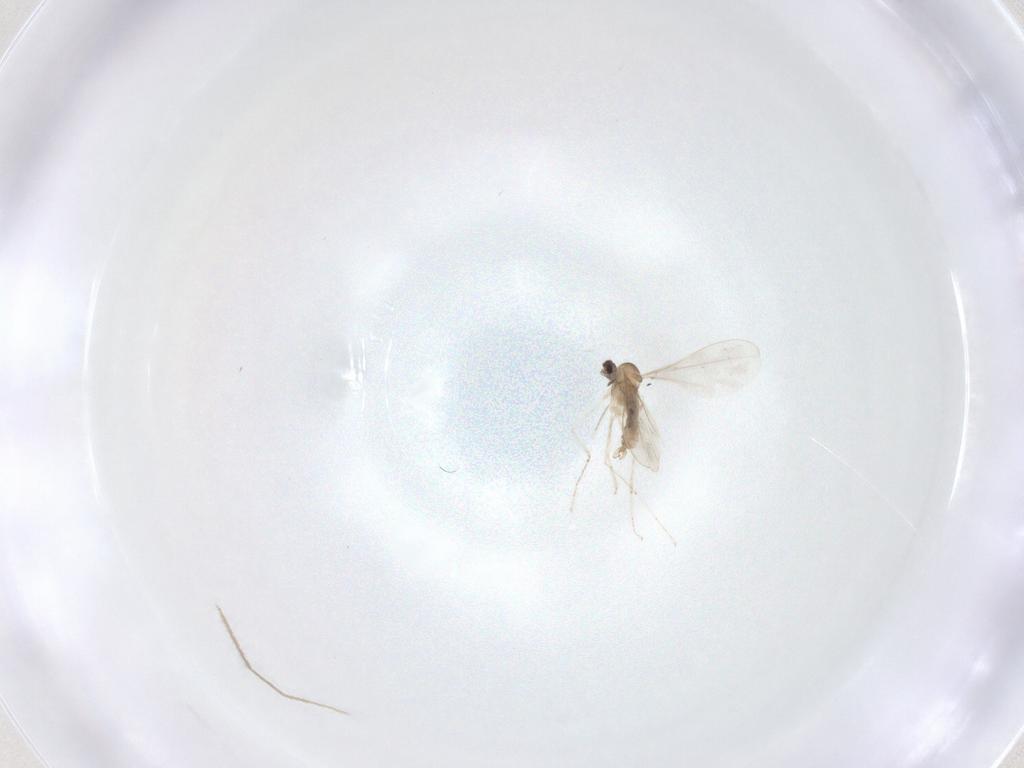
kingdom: Animalia
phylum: Arthropoda
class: Insecta
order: Diptera
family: Chironomidae
